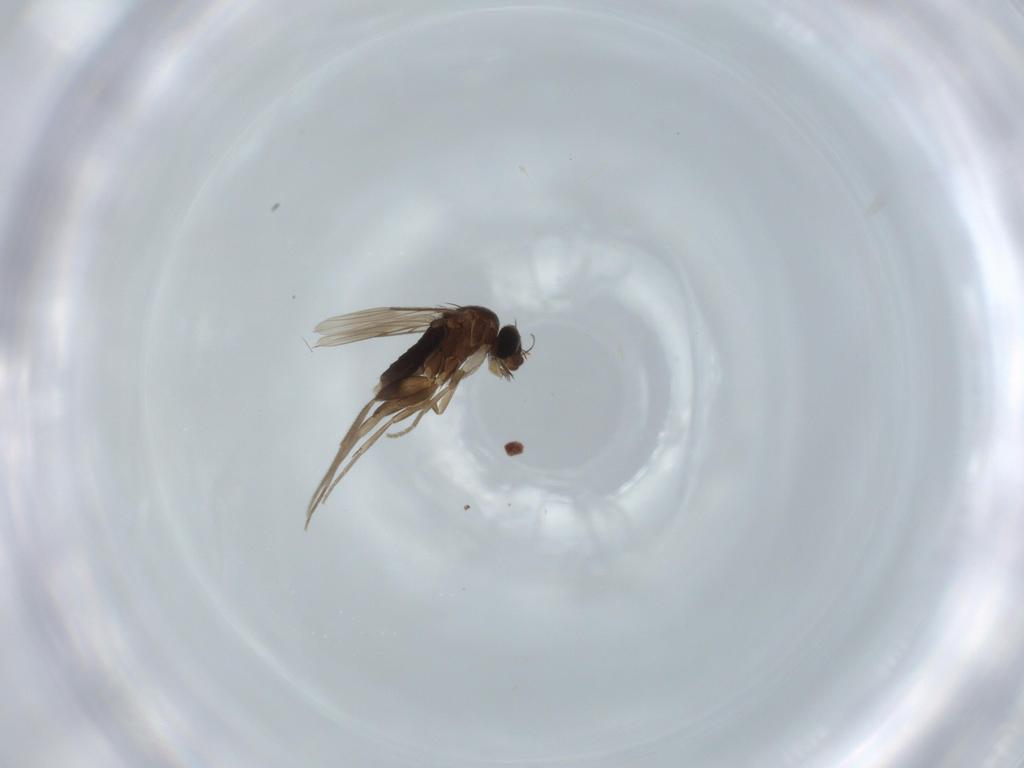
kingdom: Animalia
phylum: Arthropoda
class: Insecta
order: Diptera
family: Phoridae
